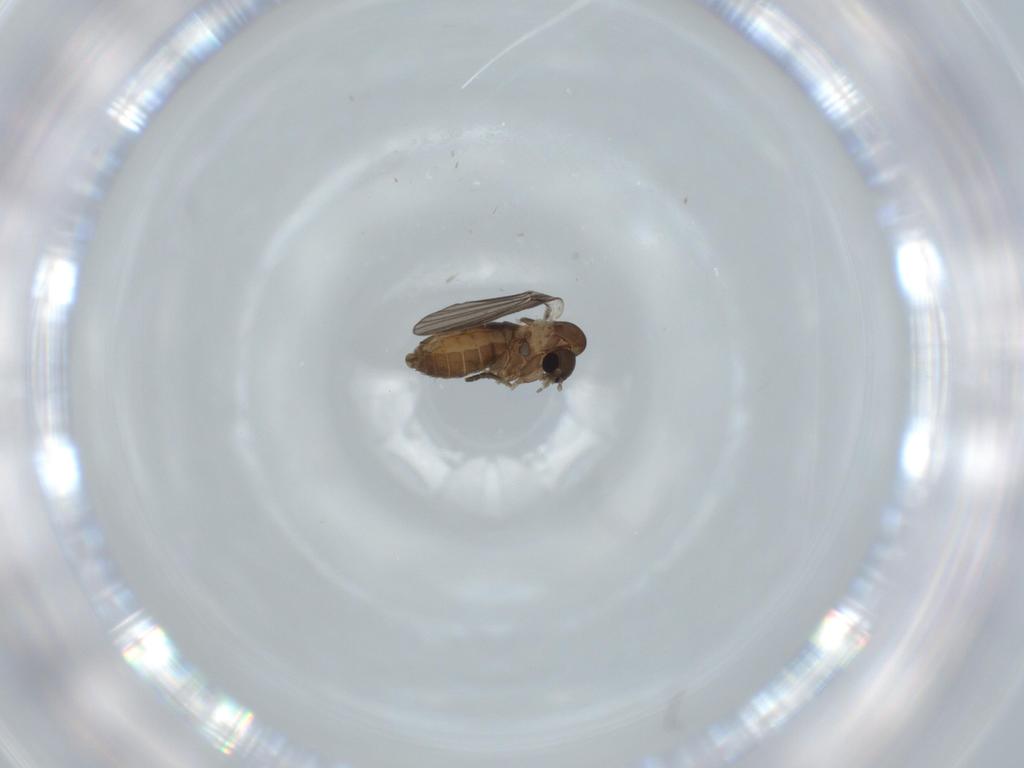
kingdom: Animalia
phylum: Arthropoda
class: Insecta
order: Diptera
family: Psychodidae
